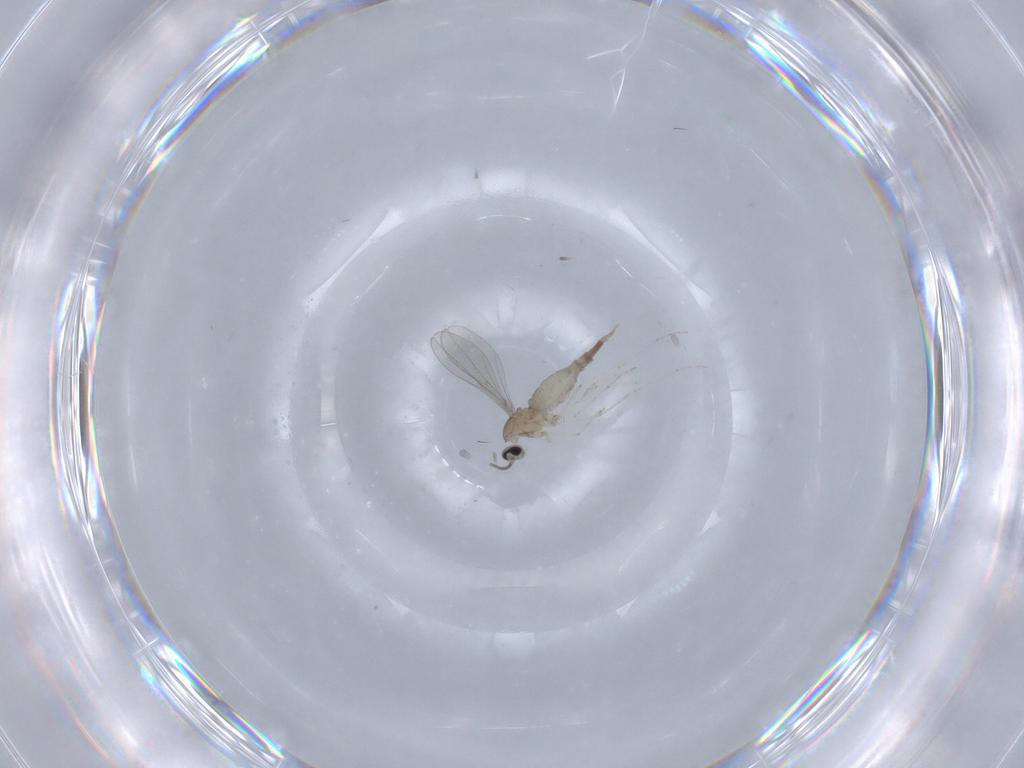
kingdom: Animalia
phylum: Arthropoda
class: Insecta
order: Diptera
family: Cecidomyiidae
